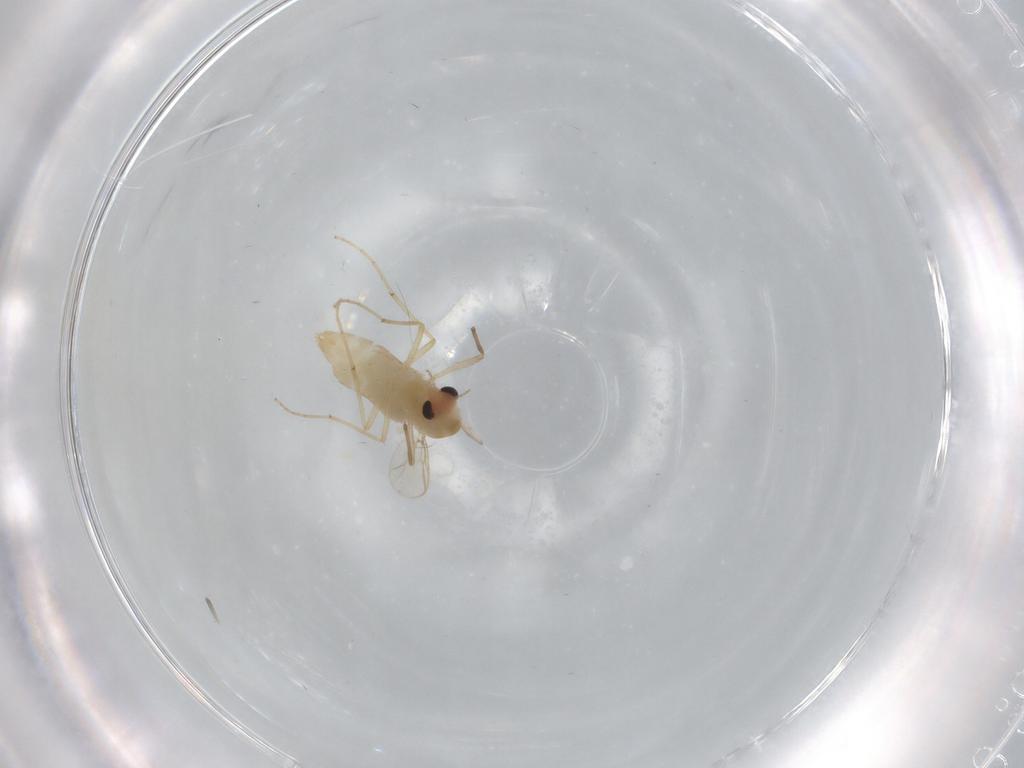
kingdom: Animalia
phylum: Arthropoda
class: Insecta
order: Diptera
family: Chironomidae
